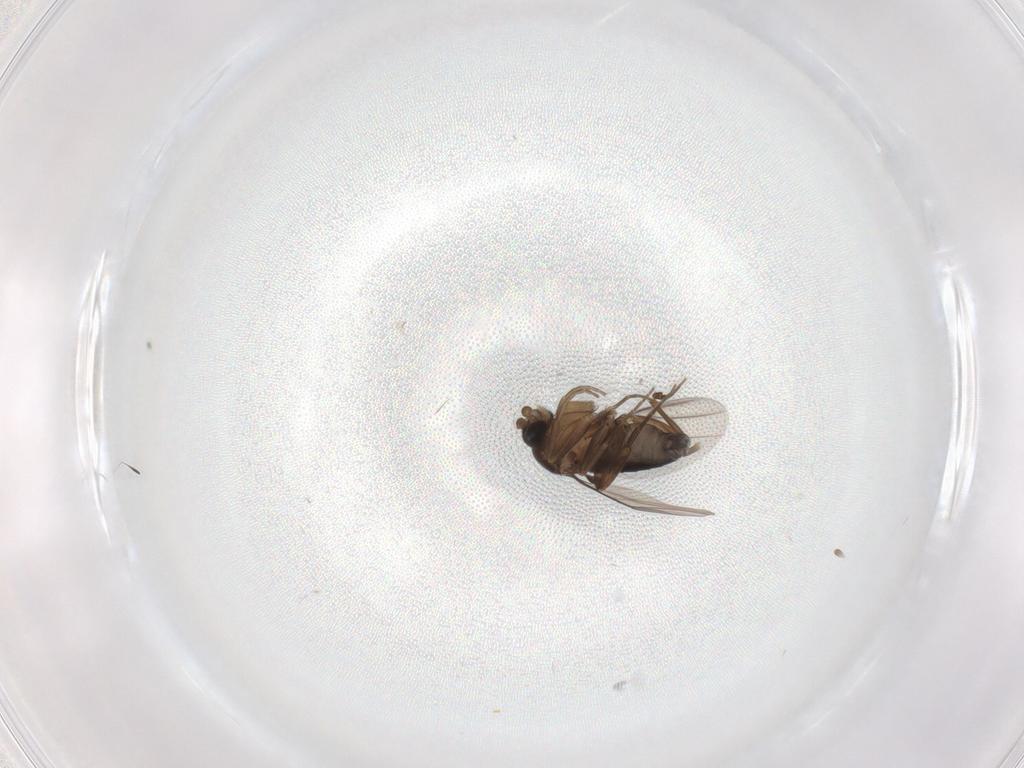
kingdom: Animalia
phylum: Arthropoda
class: Insecta
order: Diptera
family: Phoridae
